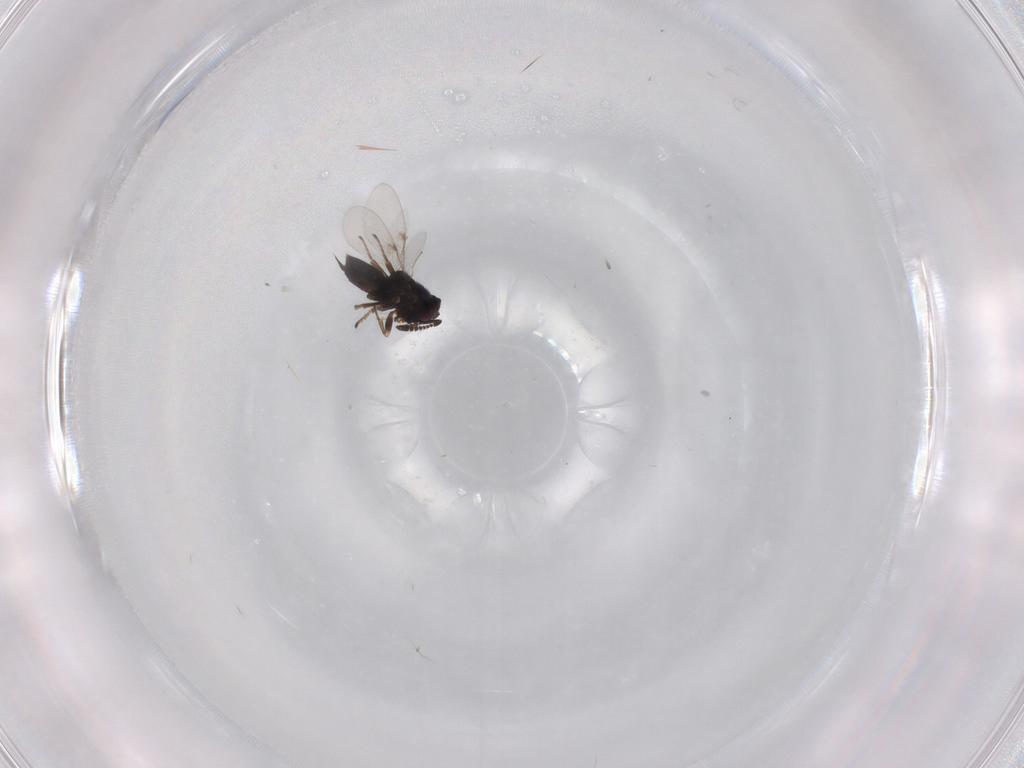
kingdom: Animalia
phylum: Arthropoda
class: Insecta
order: Hymenoptera
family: Aphelinidae
